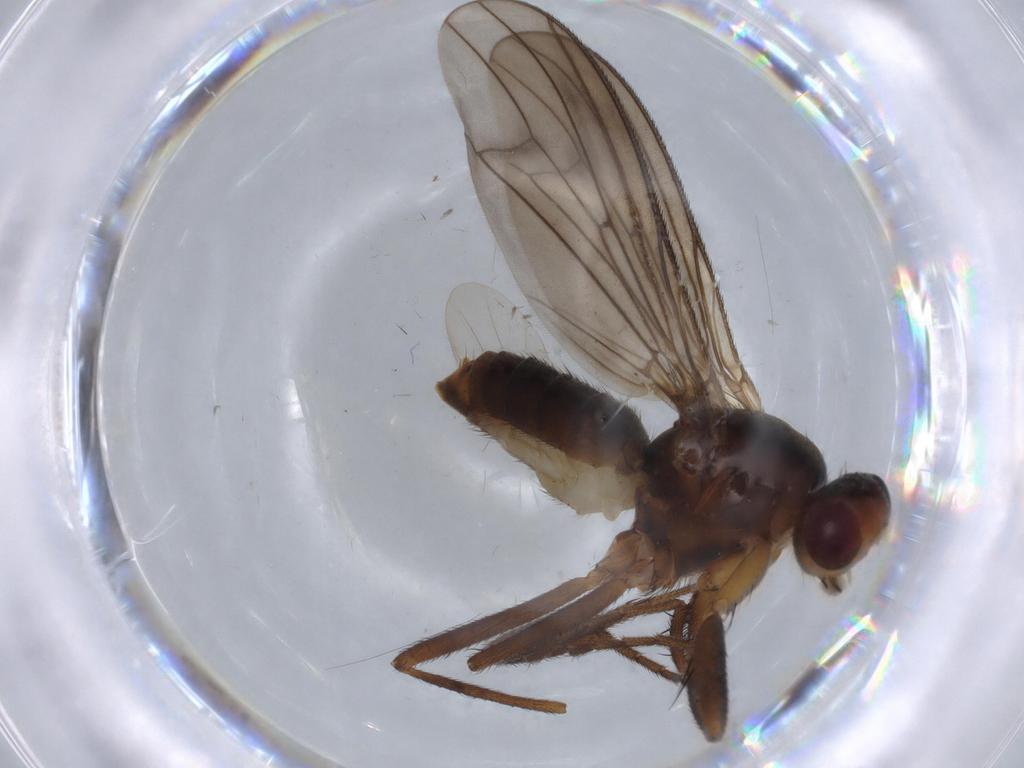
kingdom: Animalia
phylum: Arthropoda
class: Insecta
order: Diptera
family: Scathophagidae
